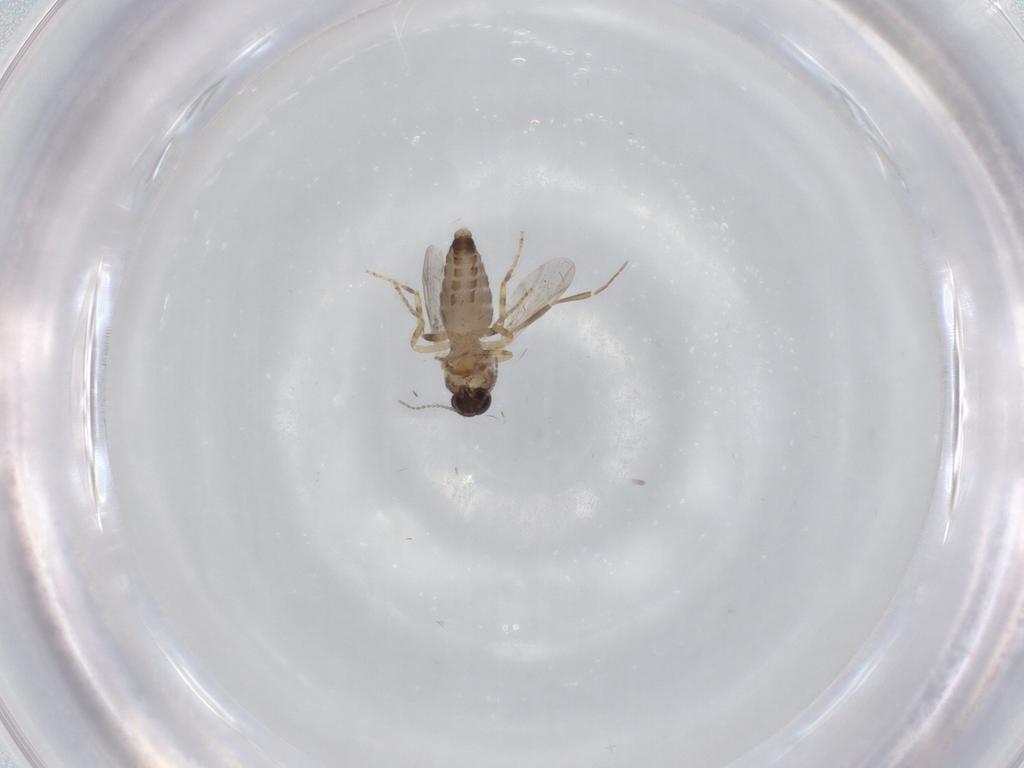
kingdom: Animalia
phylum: Arthropoda
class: Insecta
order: Diptera
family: Ceratopogonidae
